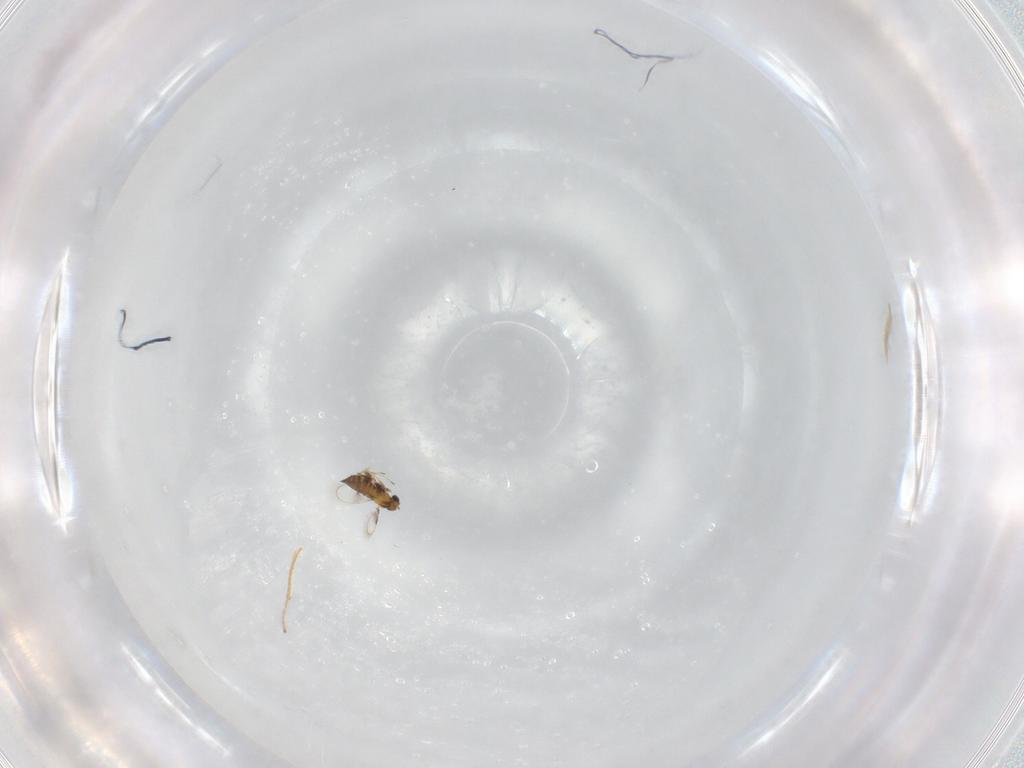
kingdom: Animalia
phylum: Arthropoda
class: Insecta
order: Hymenoptera
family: Trichogrammatidae
